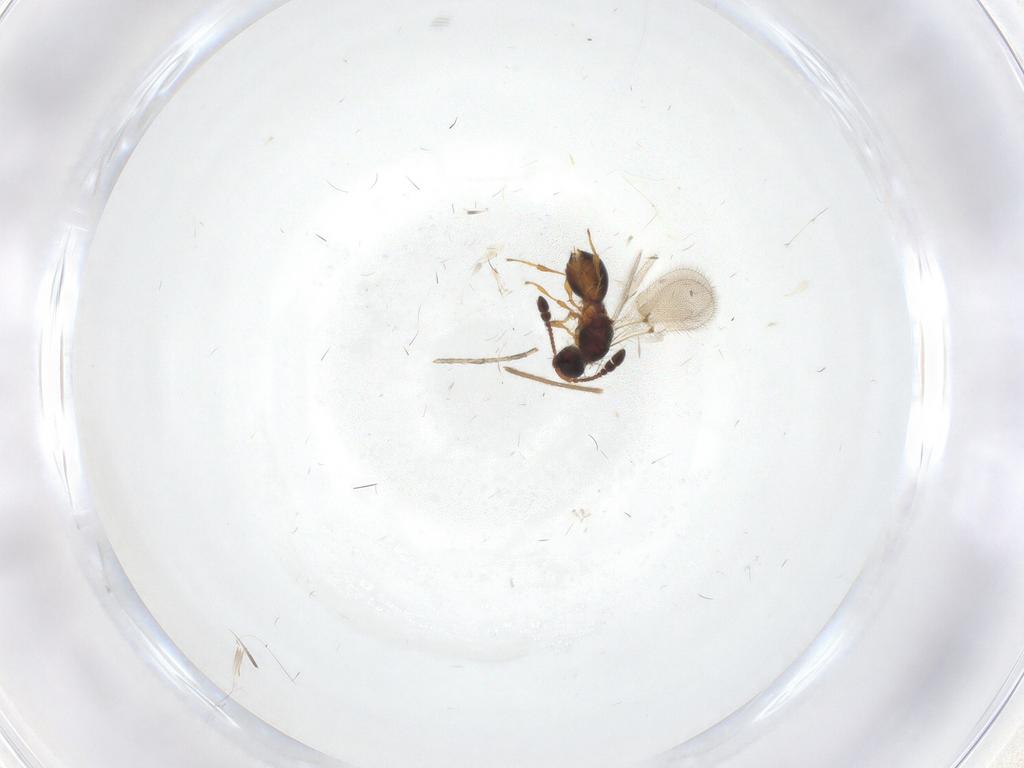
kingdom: Animalia
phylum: Arthropoda
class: Insecta
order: Hymenoptera
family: Diapriidae
